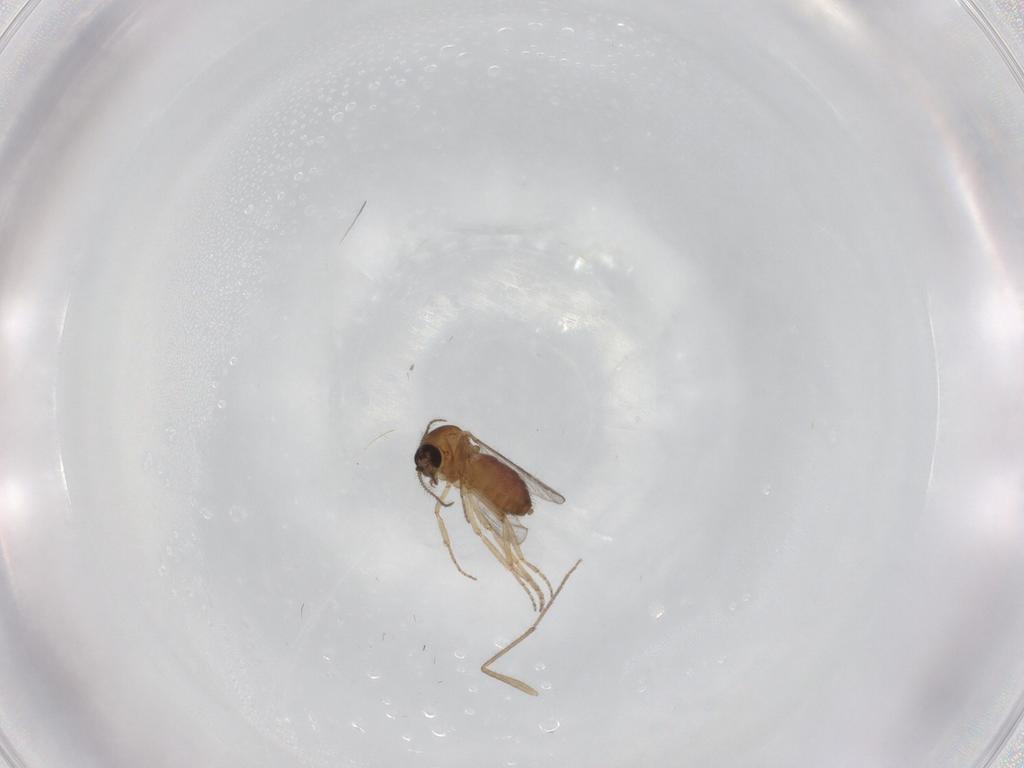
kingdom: Animalia
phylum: Arthropoda
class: Insecta
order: Diptera
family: Chironomidae
